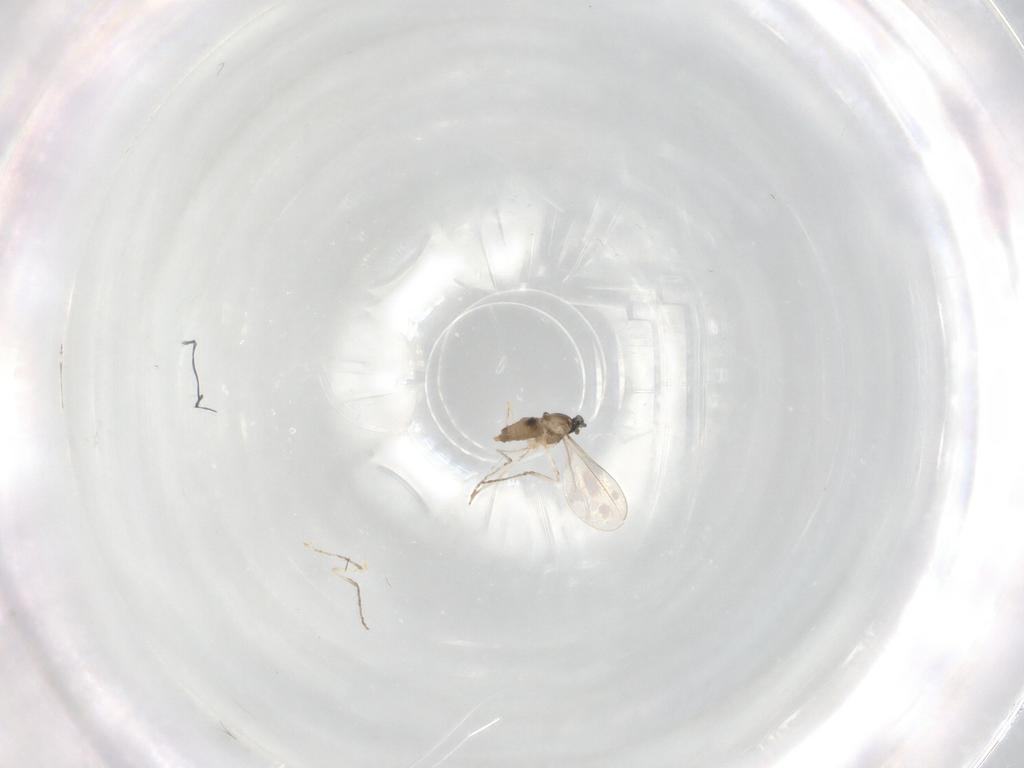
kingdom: Animalia
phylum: Arthropoda
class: Insecta
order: Diptera
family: Cecidomyiidae
